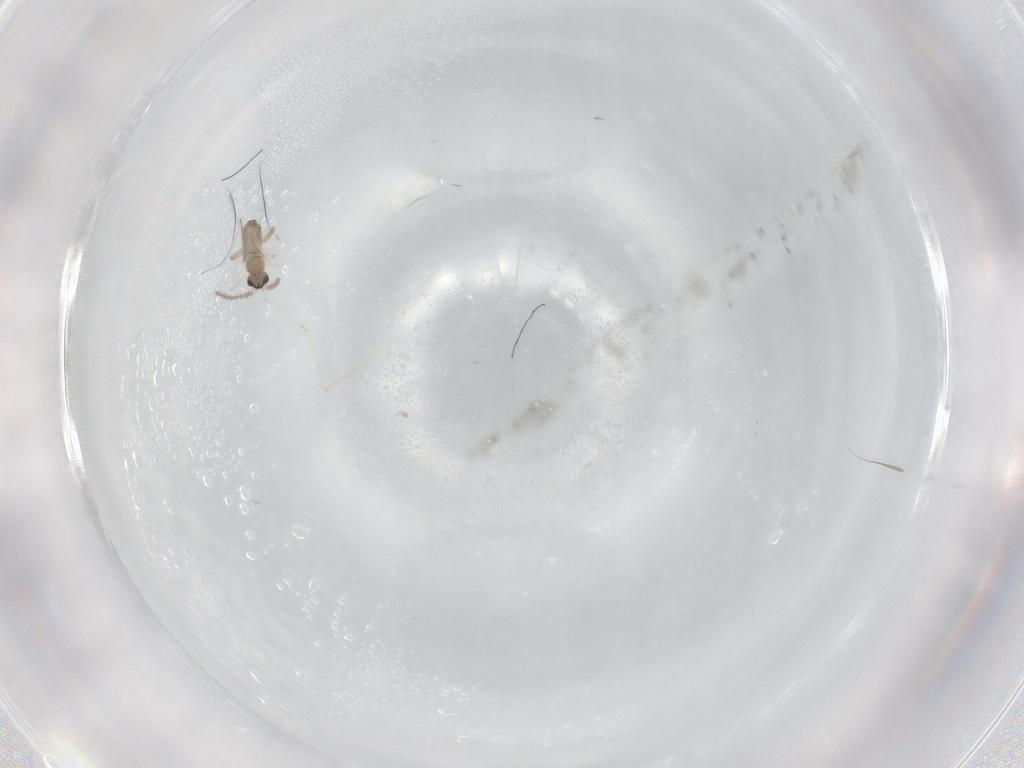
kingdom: Animalia
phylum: Arthropoda
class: Insecta
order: Diptera
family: Cecidomyiidae
